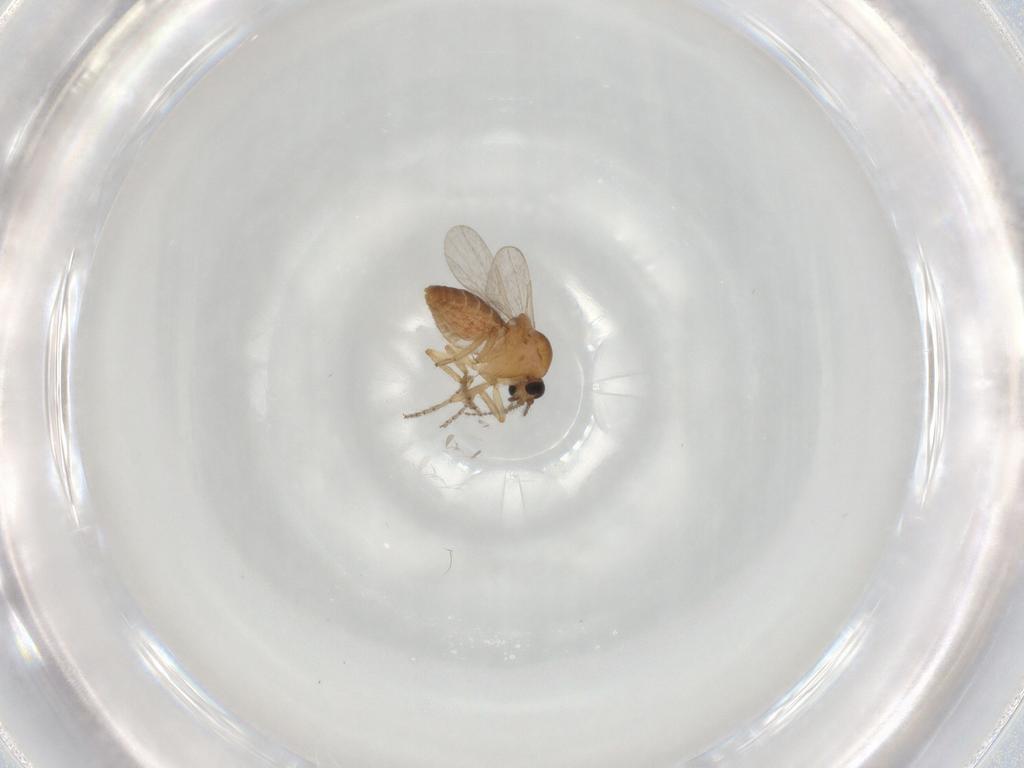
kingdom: Animalia
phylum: Arthropoda
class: Insecta
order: Diptera
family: Ceratopogonidae
